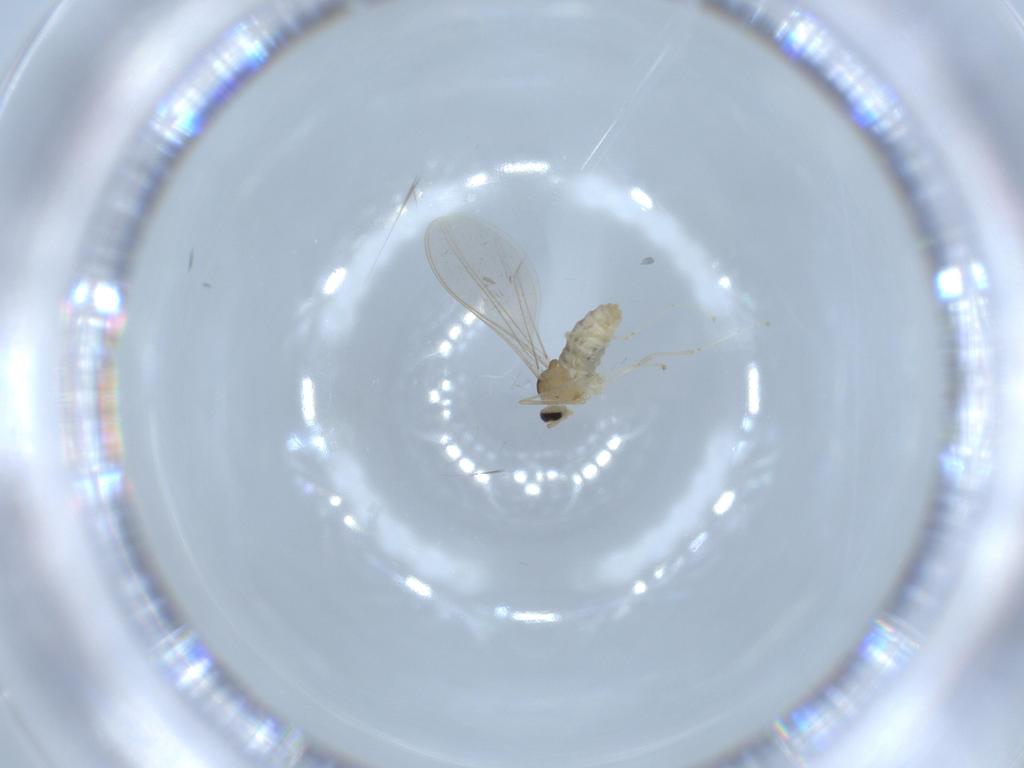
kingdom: Animalia
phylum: Arthropoda
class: Insecta
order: Diptera
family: Cecidomyiidae
